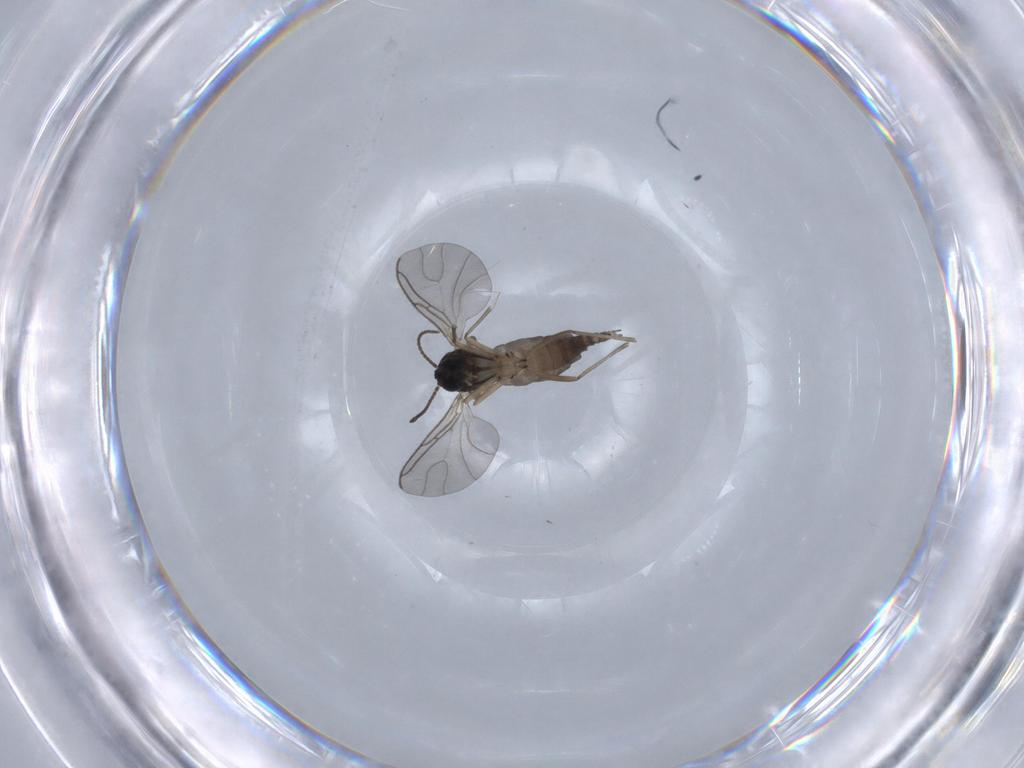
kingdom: Animalia
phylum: Arthropoda
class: Insecta
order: Diptera
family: Sciaridae
